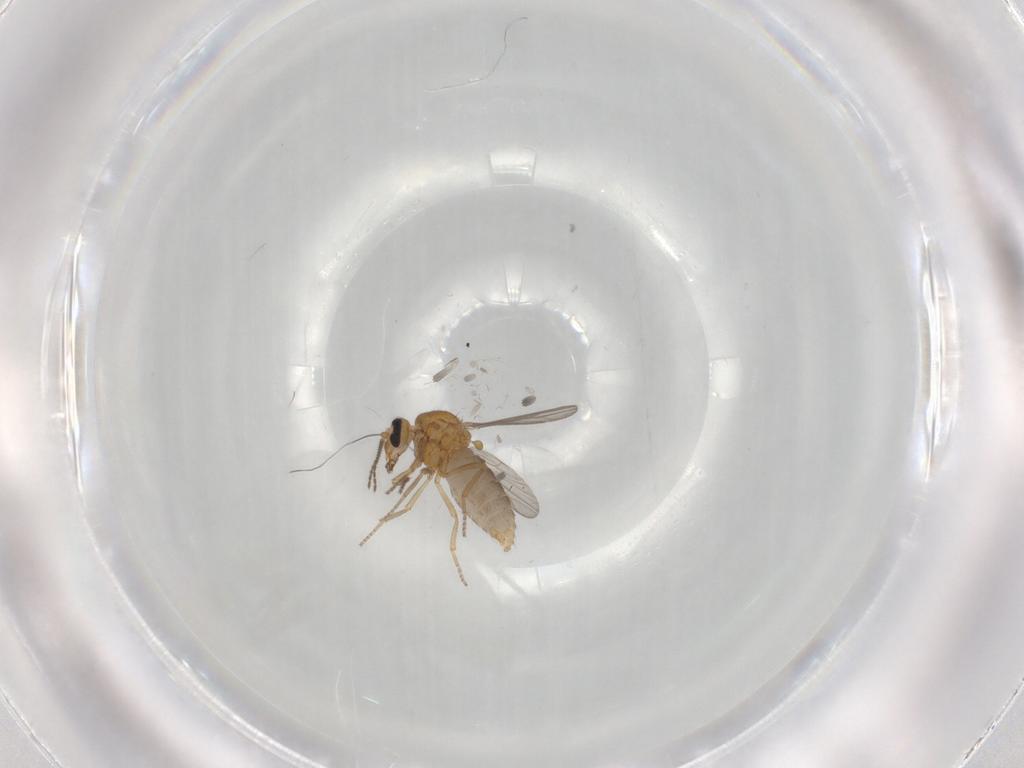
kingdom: Animalia
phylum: Arthropoda
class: Insecta
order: Diptera
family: Ceratopogonidae
